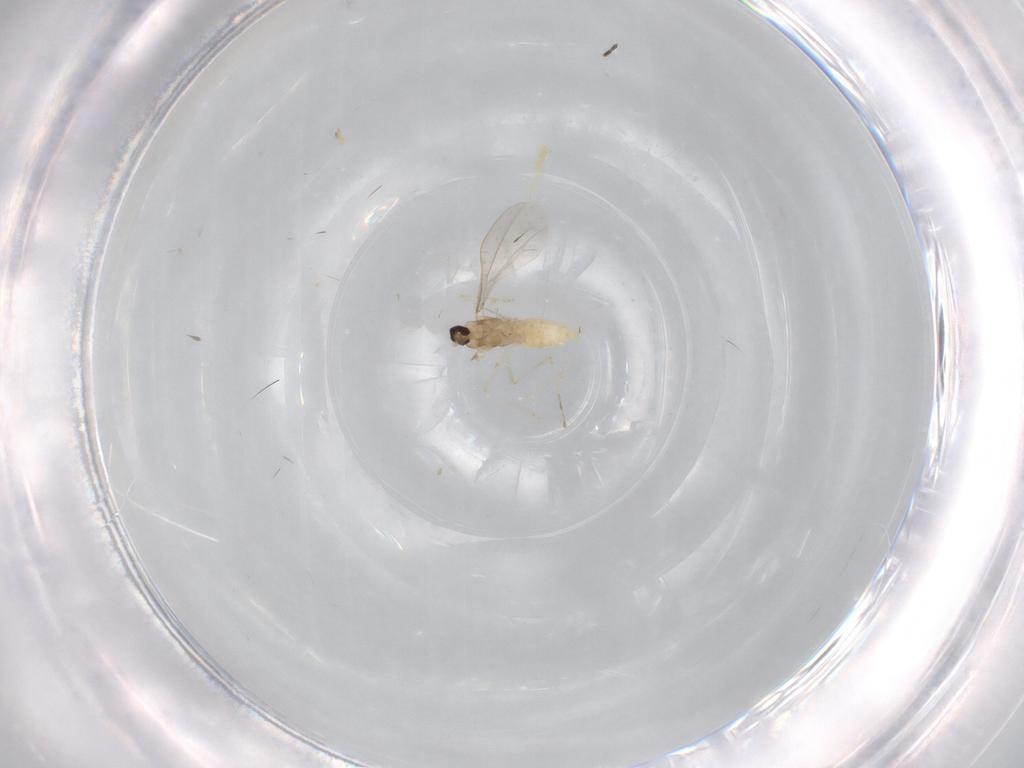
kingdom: Animalia
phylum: Arthropoda
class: Insecta
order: Diptera
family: Cecidomyiidae
